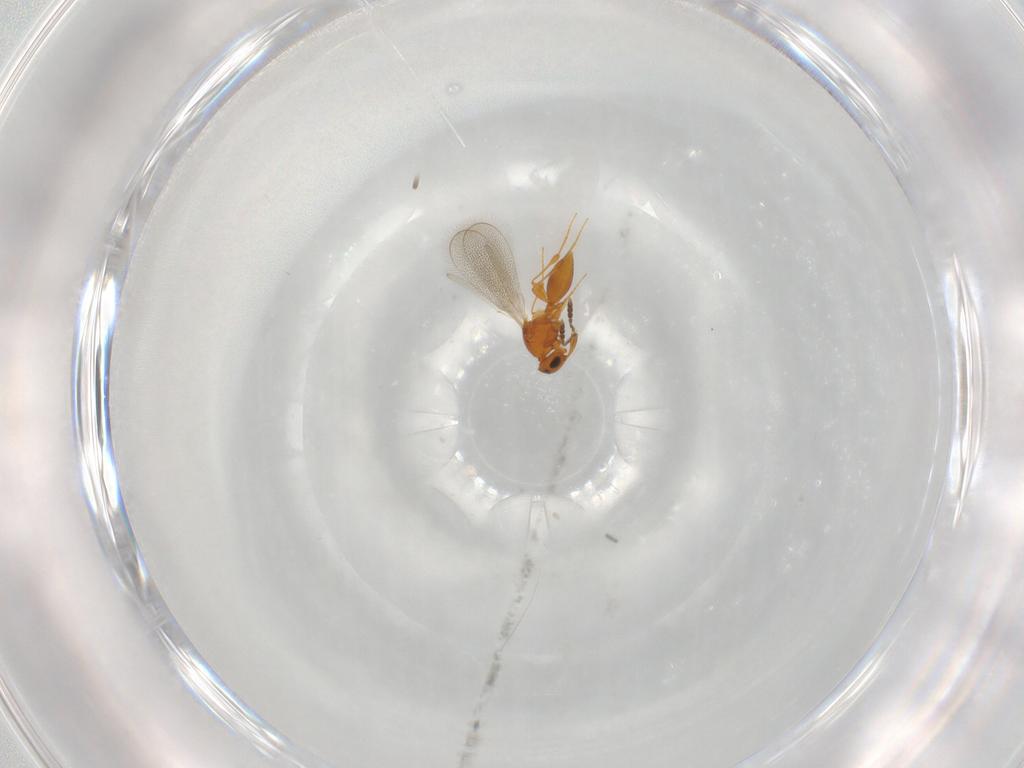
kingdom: Animalia
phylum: Arthropoda
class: Insecta
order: Hymenoptera
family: Platygastridae
